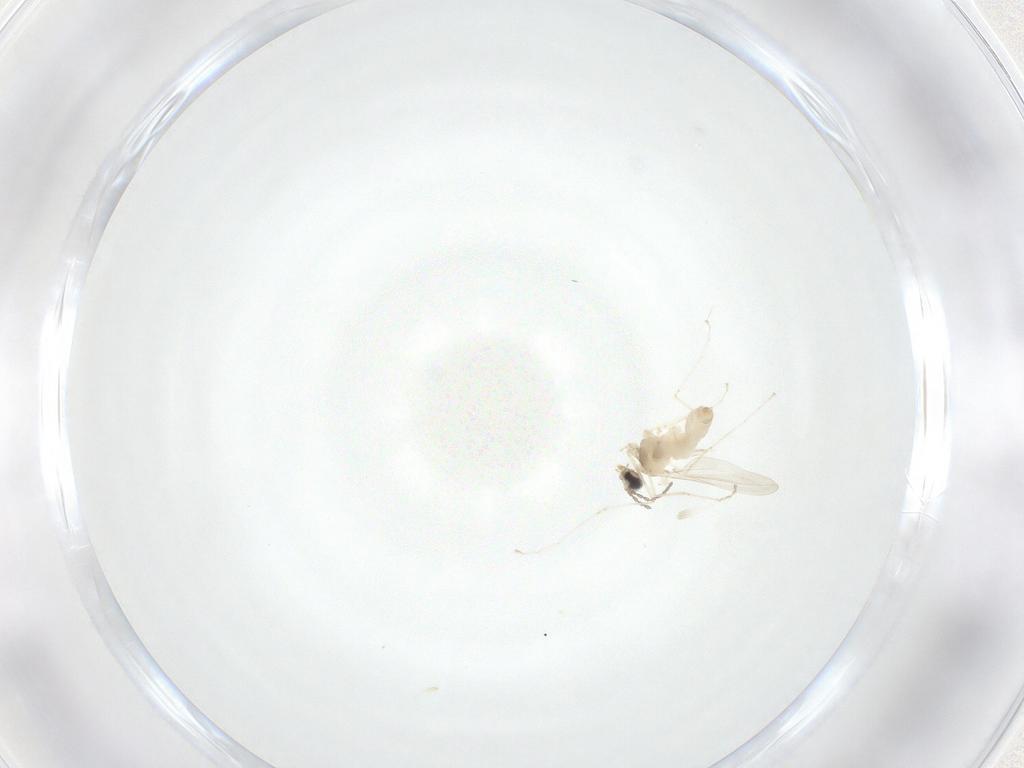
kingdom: Animalia
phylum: Arthropoda
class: Insecta
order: Diptera
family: Cecidomyiidae
